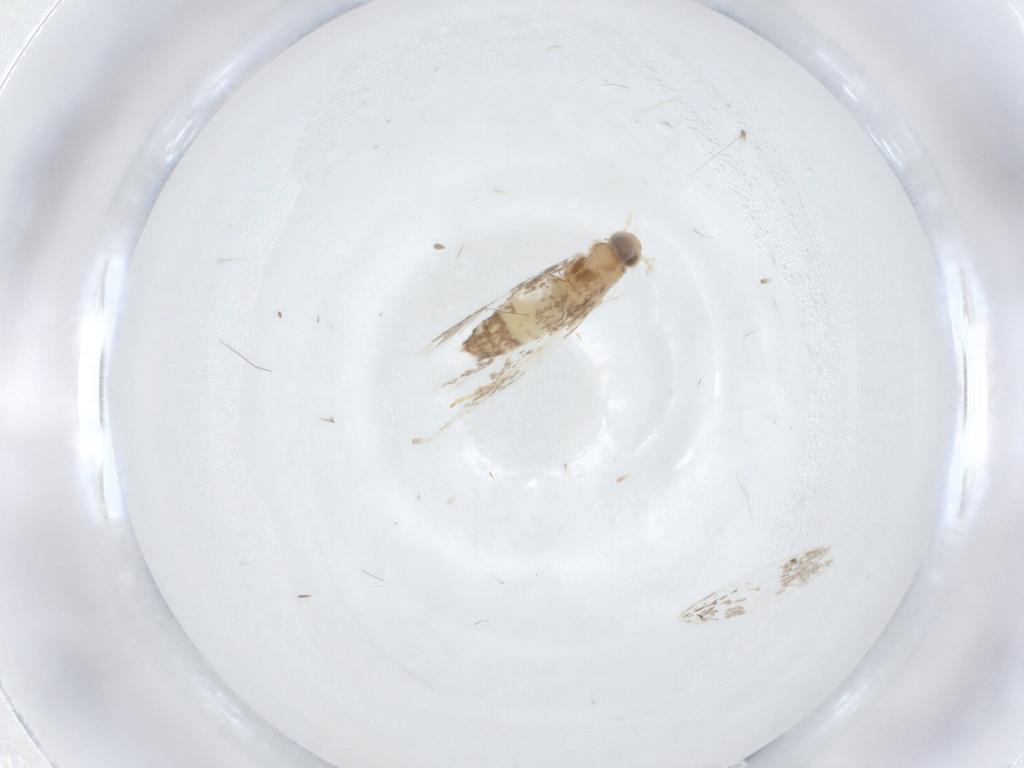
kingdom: Animalia
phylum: Arthropoda
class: Insecta
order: Lepidoptera
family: Tortricidae
